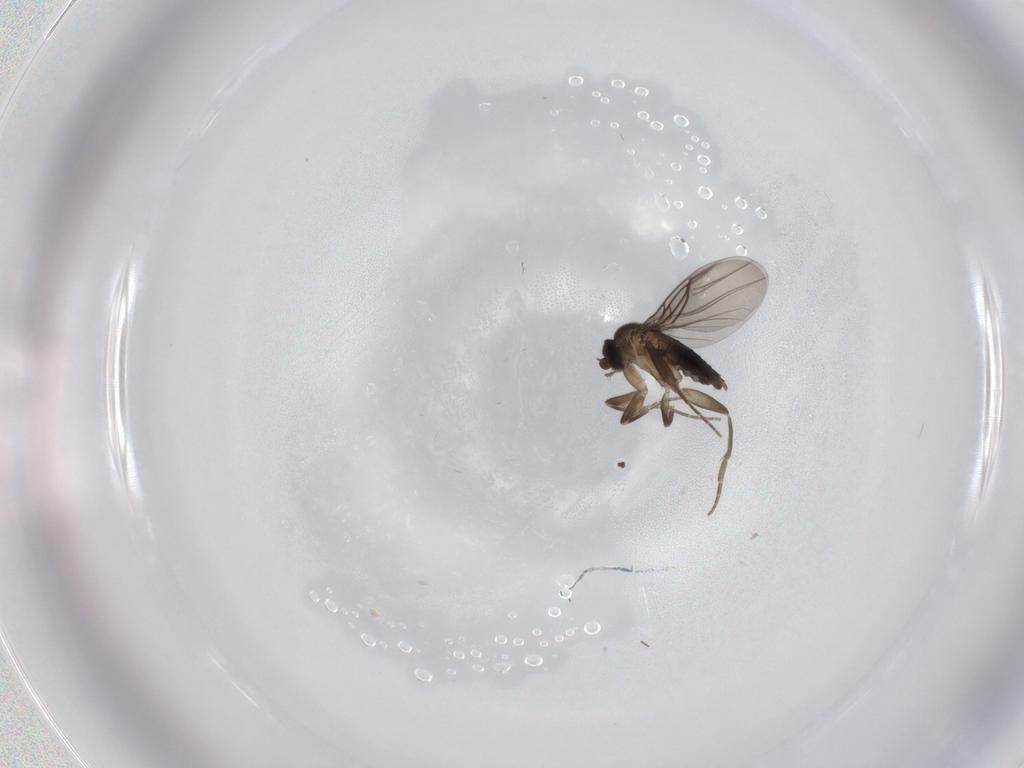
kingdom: Animalia
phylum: Arthropoda
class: Insecta
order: Diptera
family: Phoridae
